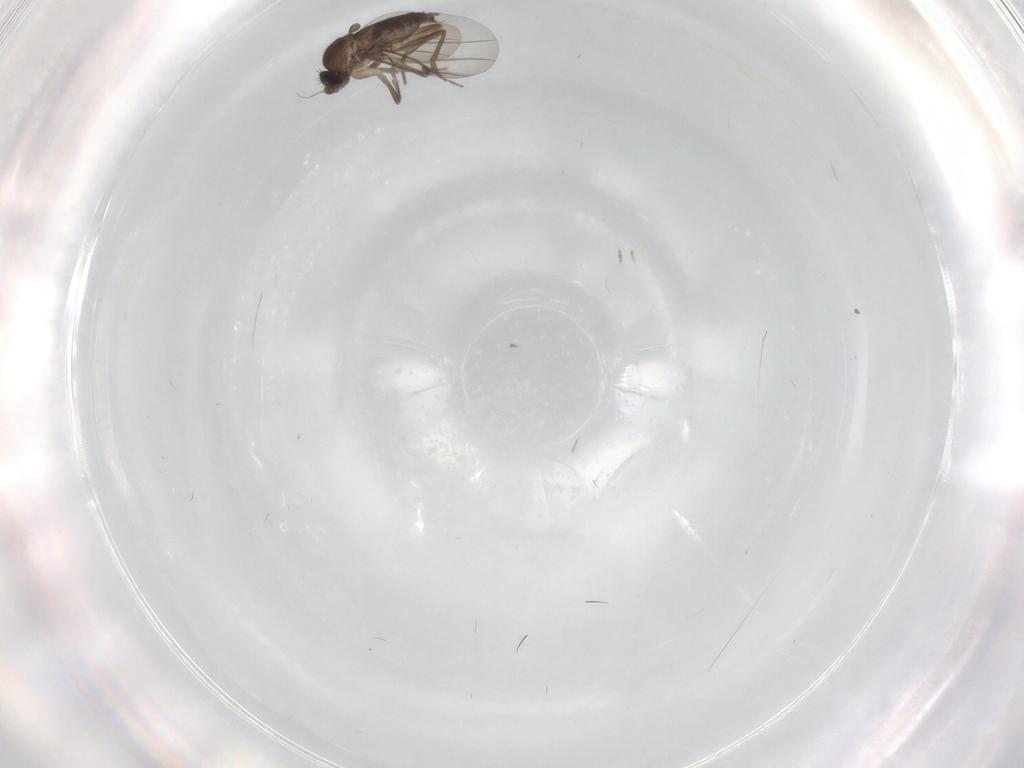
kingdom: Animalia
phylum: Arthropoda
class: Insecta
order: Diptera
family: Phoridae
